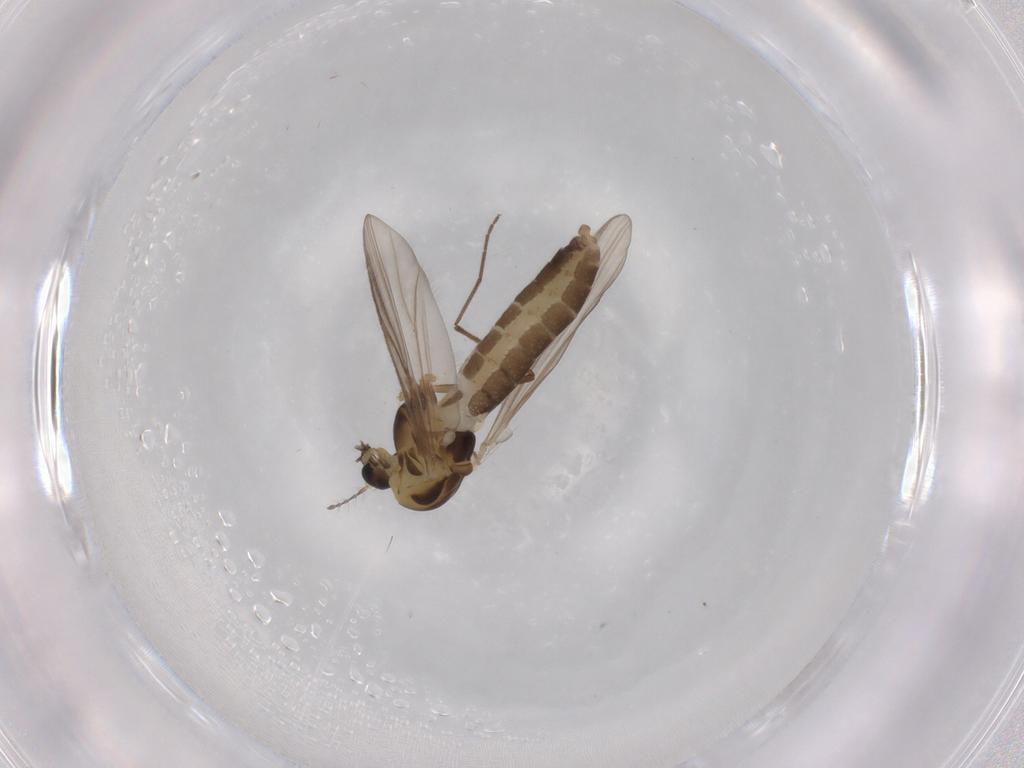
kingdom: Animalia
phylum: Arthropoda
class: Insecta
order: Diptera
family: Chironomidae
